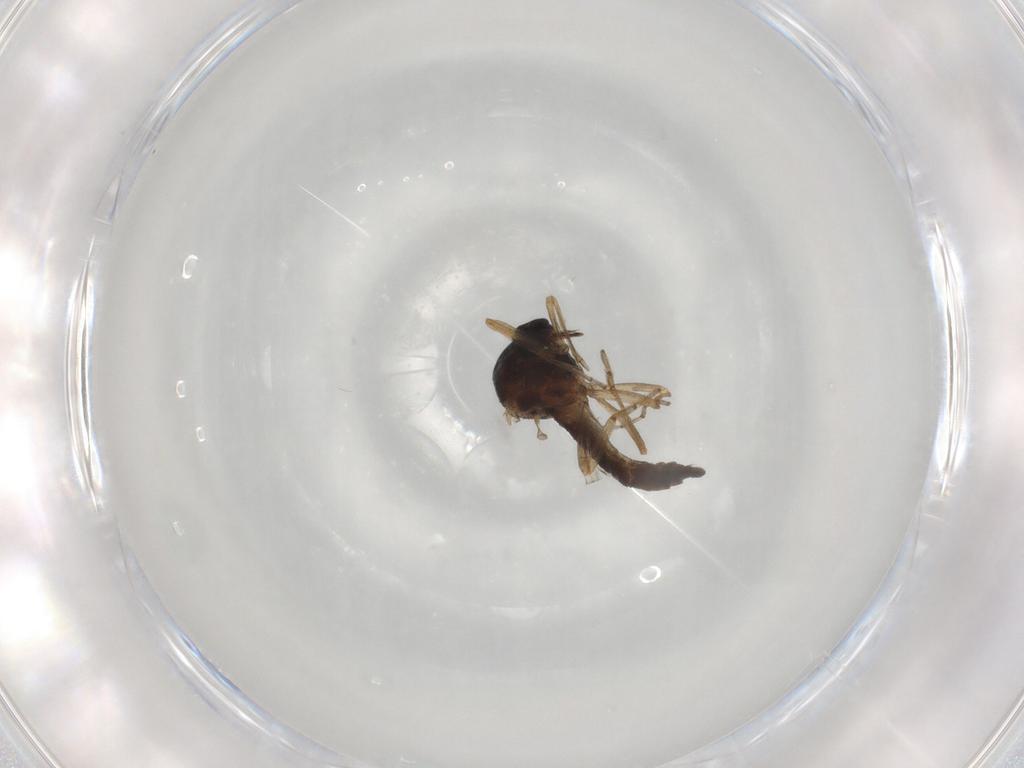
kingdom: Animalia
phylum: Arthropoda
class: Insecta
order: Diptera
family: Ceratopogonidae
